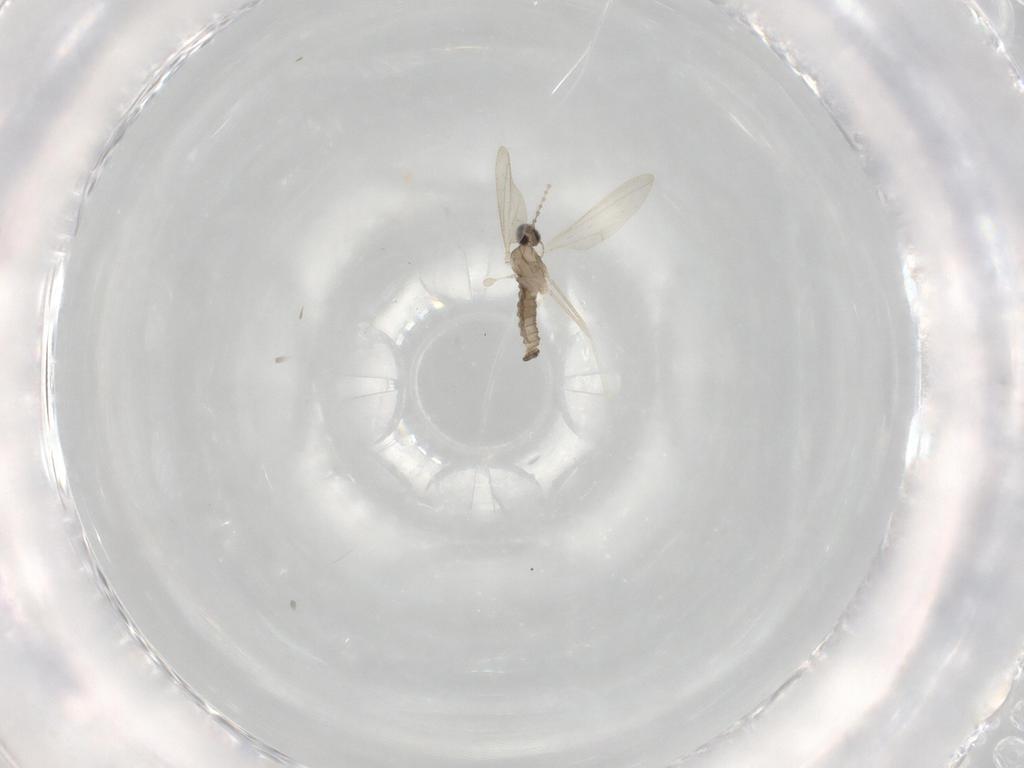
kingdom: Animalia
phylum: Arthropoda
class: Insecta
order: Diptera
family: Cecidomyiidae
